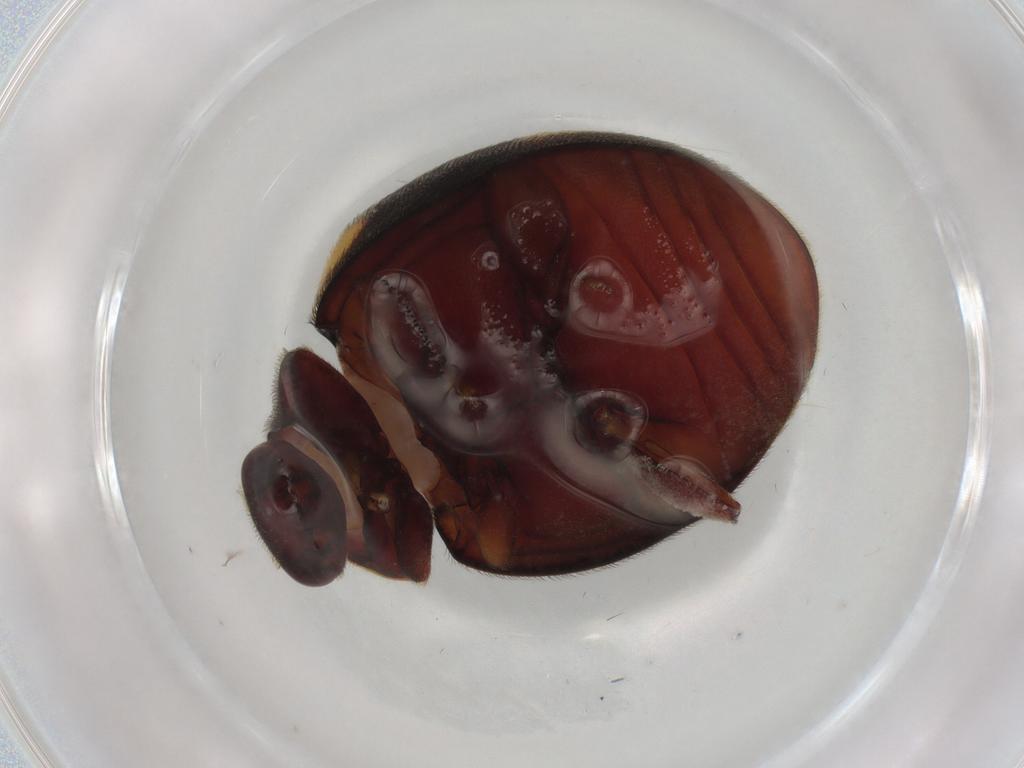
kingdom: Animalia
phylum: Arthropoda
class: Insecta
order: Coleoptera
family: Coccinellidae
